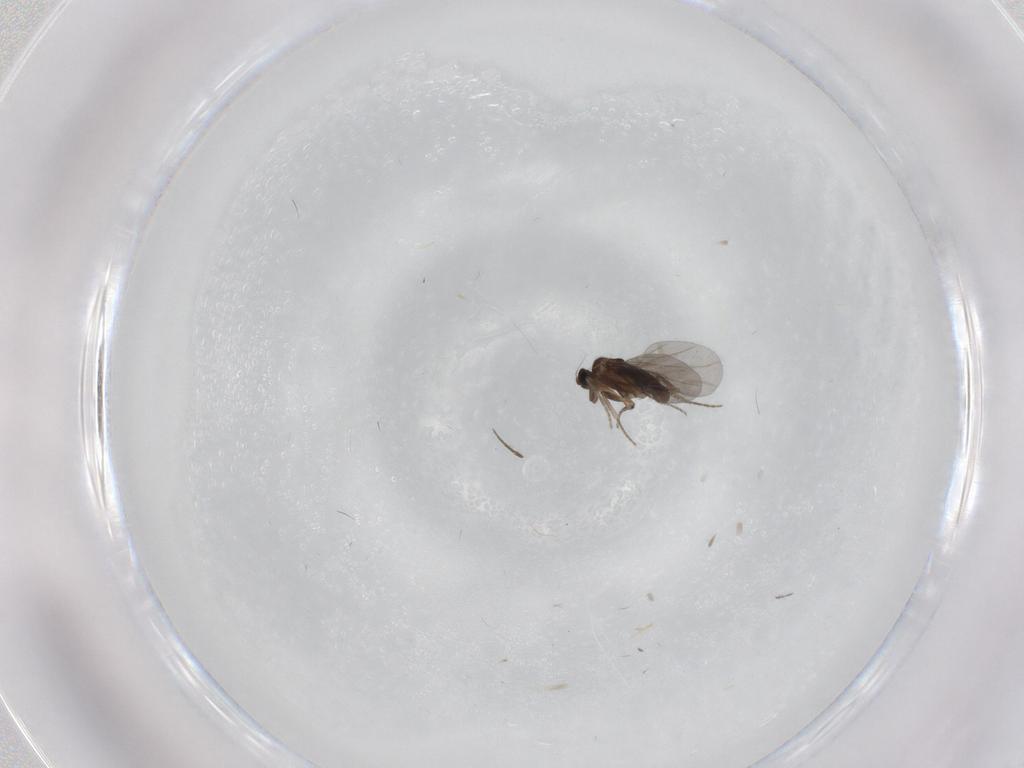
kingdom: Animalia
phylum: Arthropoda
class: Insecta
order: Diptera
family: Chironomidae
